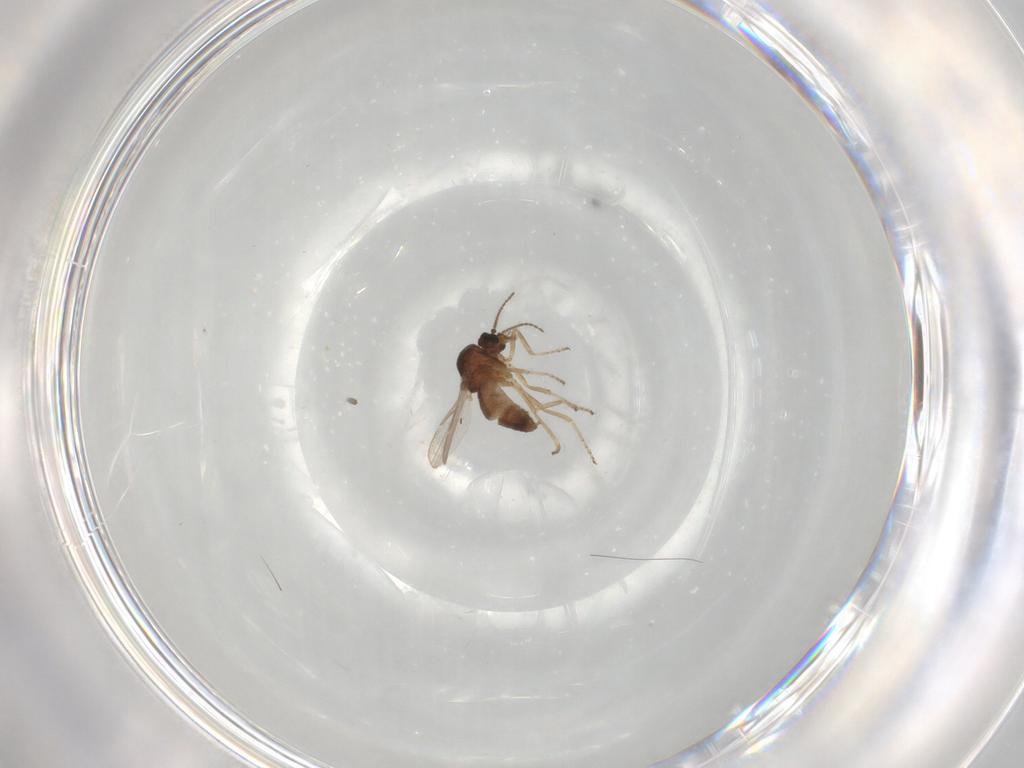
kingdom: Animalia
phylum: Arthropoda
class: Insecta
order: Diptera
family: Ceratopogonidae
